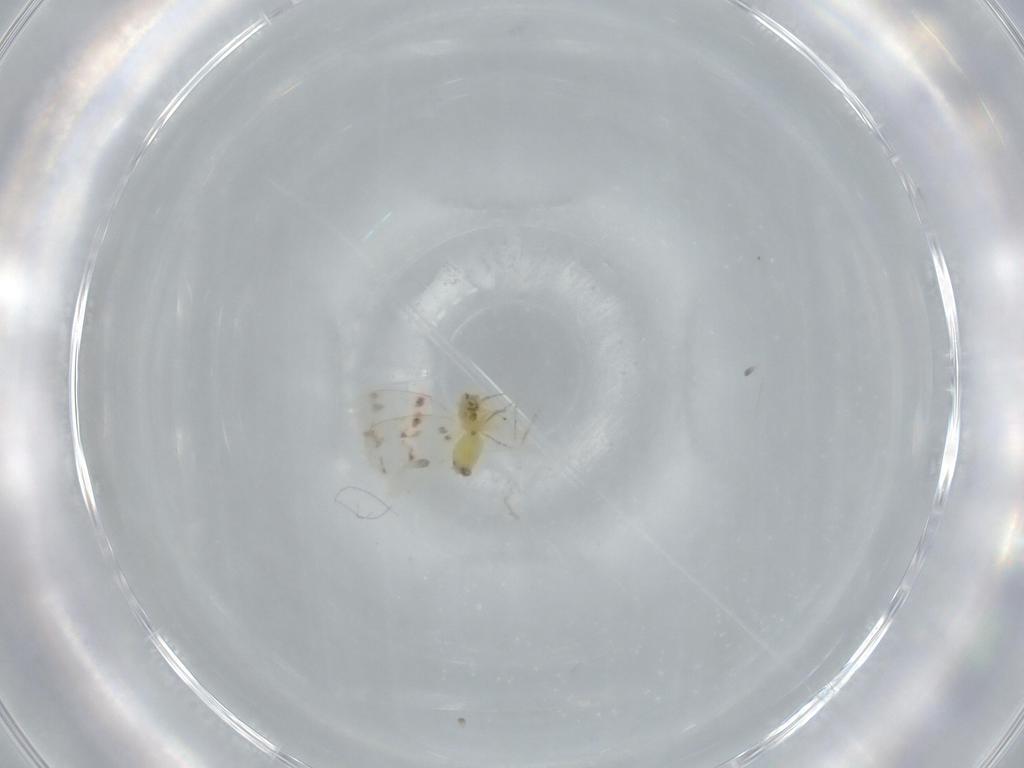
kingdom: Animalia
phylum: Arthropoda
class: Insecta
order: Hemiptera
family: Aleyrodidae
